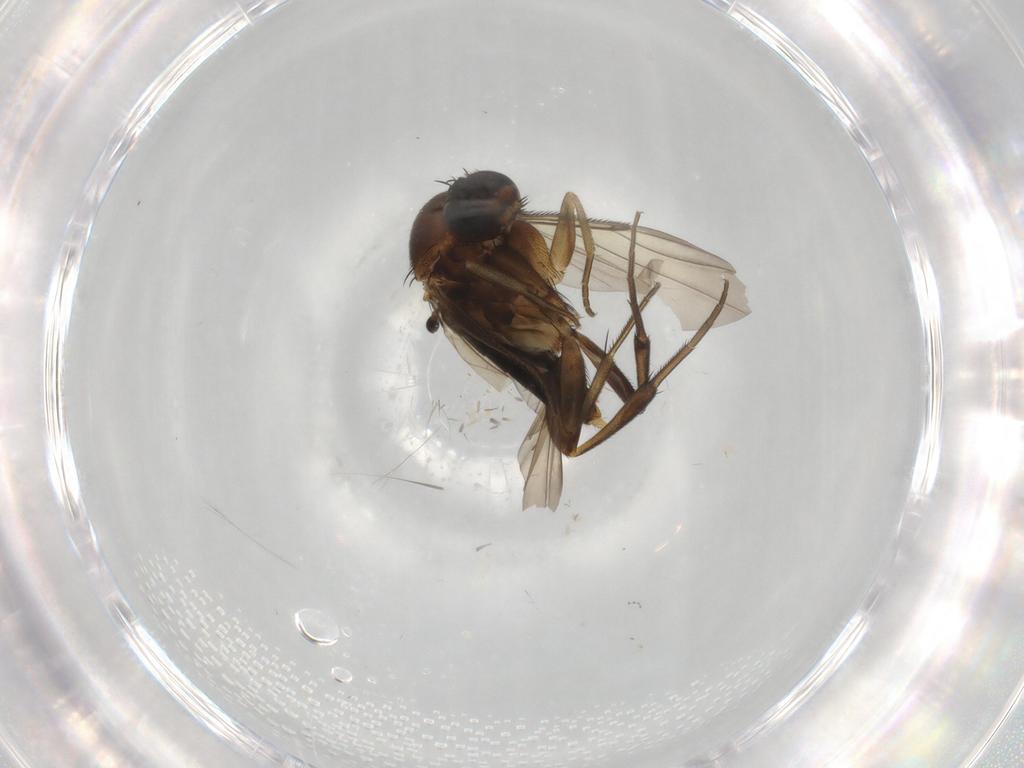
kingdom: Animalia
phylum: Arthropoda
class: Insecta
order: Diptera
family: Phoridae
